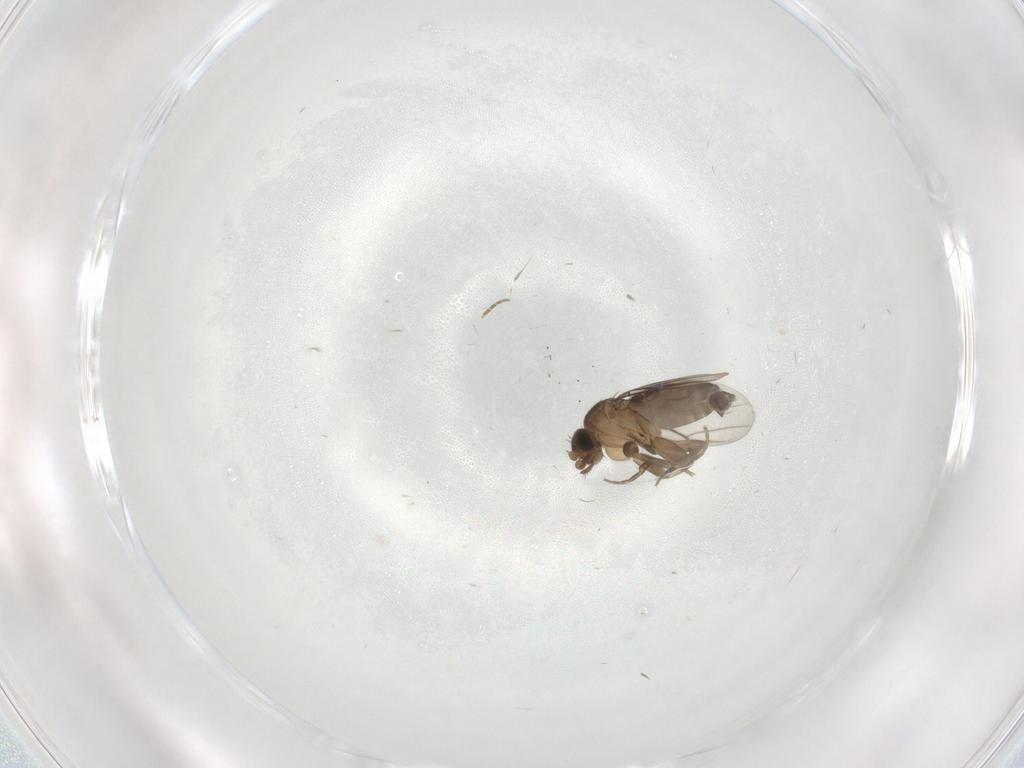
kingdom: Animalia
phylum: Arthropoda
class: Insecta
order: Diptera
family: Phoridae
